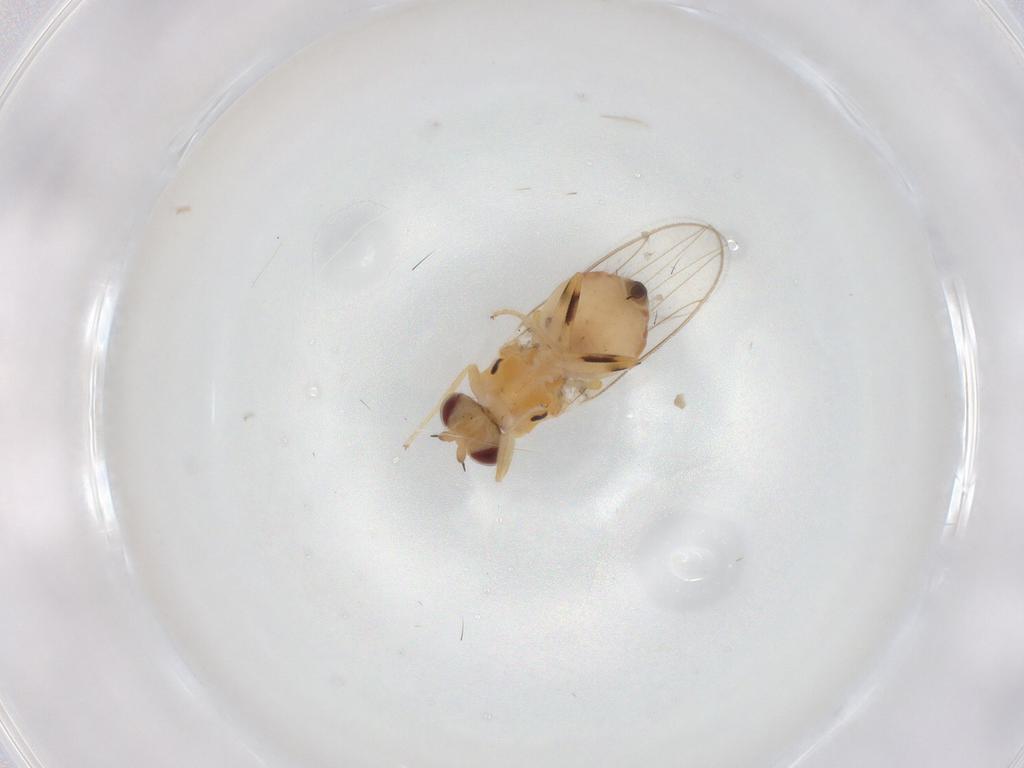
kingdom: Animalia
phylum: Arthropoda
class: Insecta
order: Diptera
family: Chloropidae
